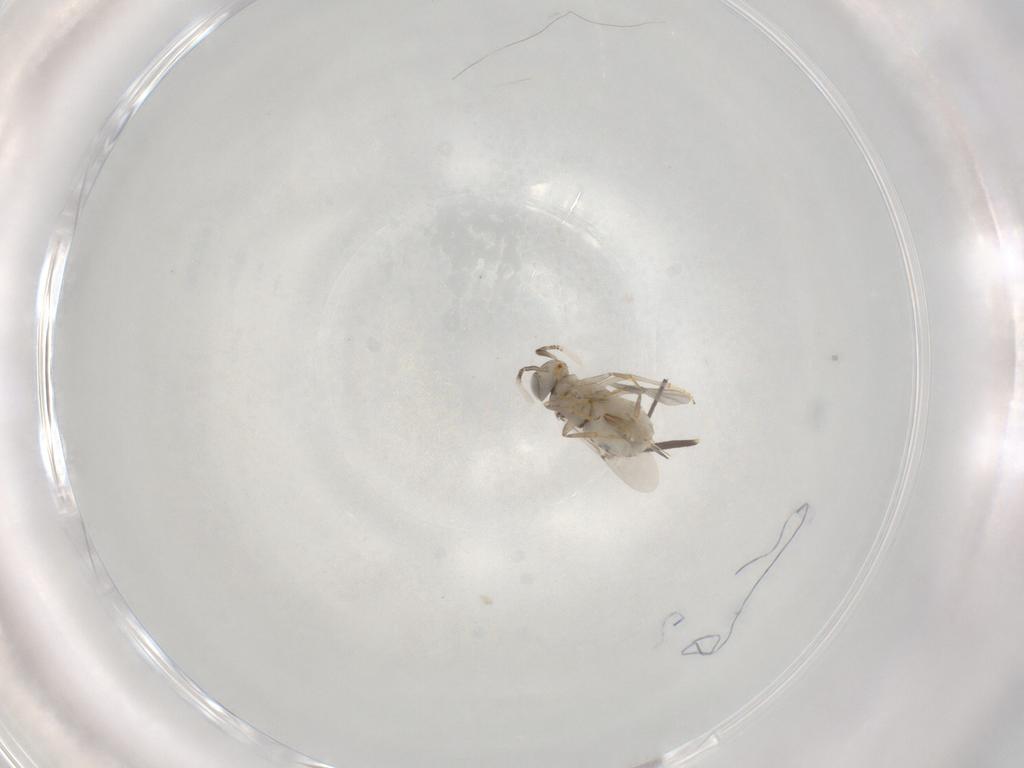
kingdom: Animalia
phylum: Arthropoda
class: Insecta
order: Hymenoptera
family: Encyrtidae
